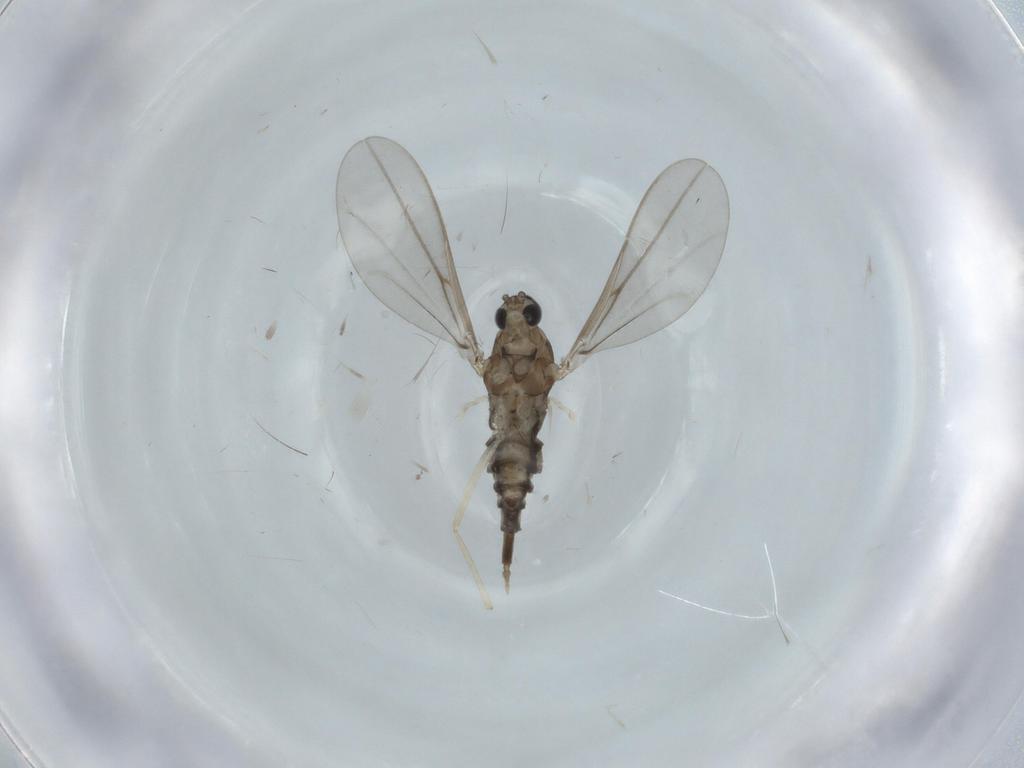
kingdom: Animalia
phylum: Arthropoda
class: Insecta
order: Diptera
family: Cecidomyiidae
